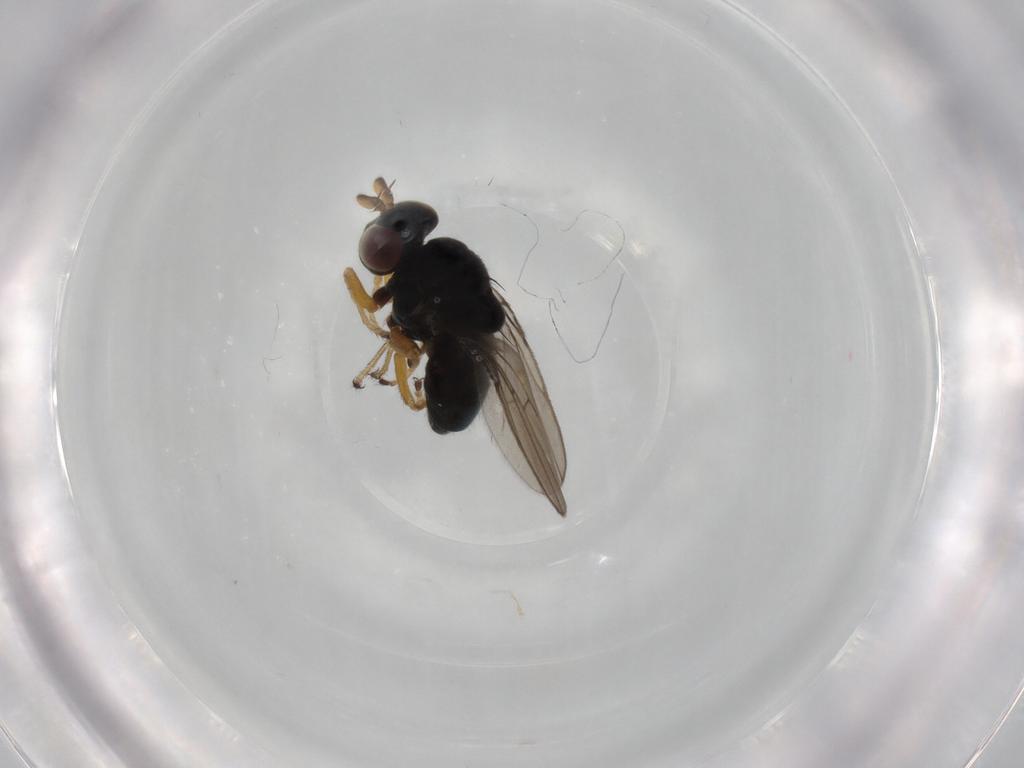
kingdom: Animalia
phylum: Arthropoda
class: Insecta
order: Diptera
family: Ephydridae
